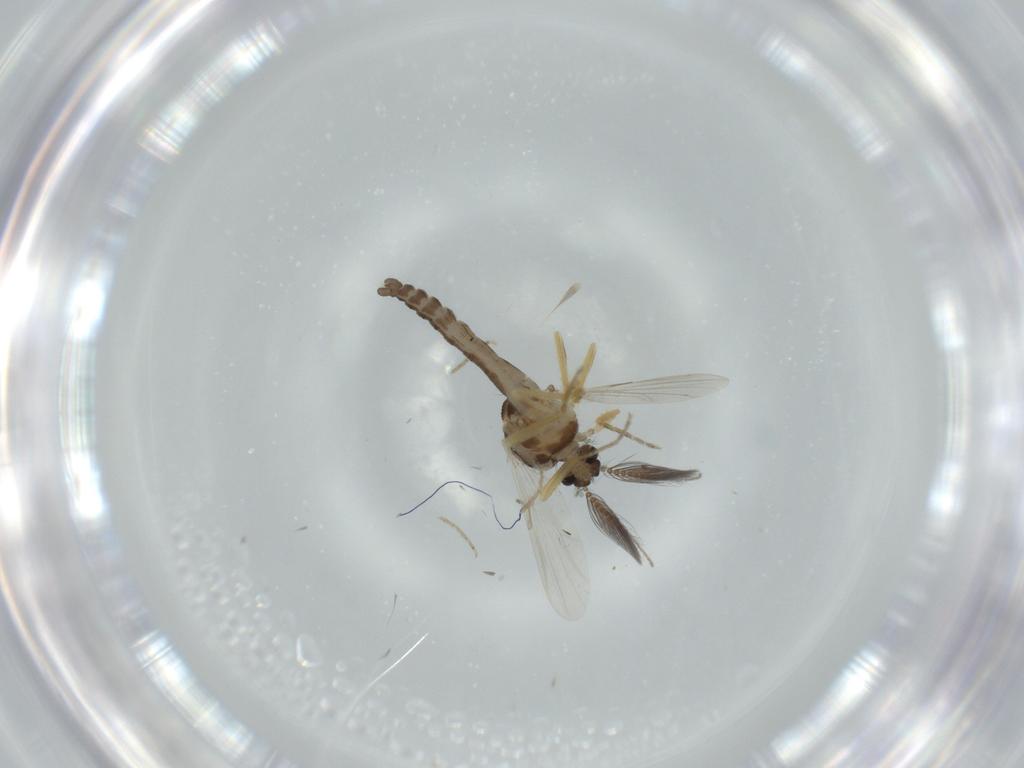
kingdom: Animalia
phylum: Arthropoda
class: Insecta
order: Diptera
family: Ceratopogonidae
